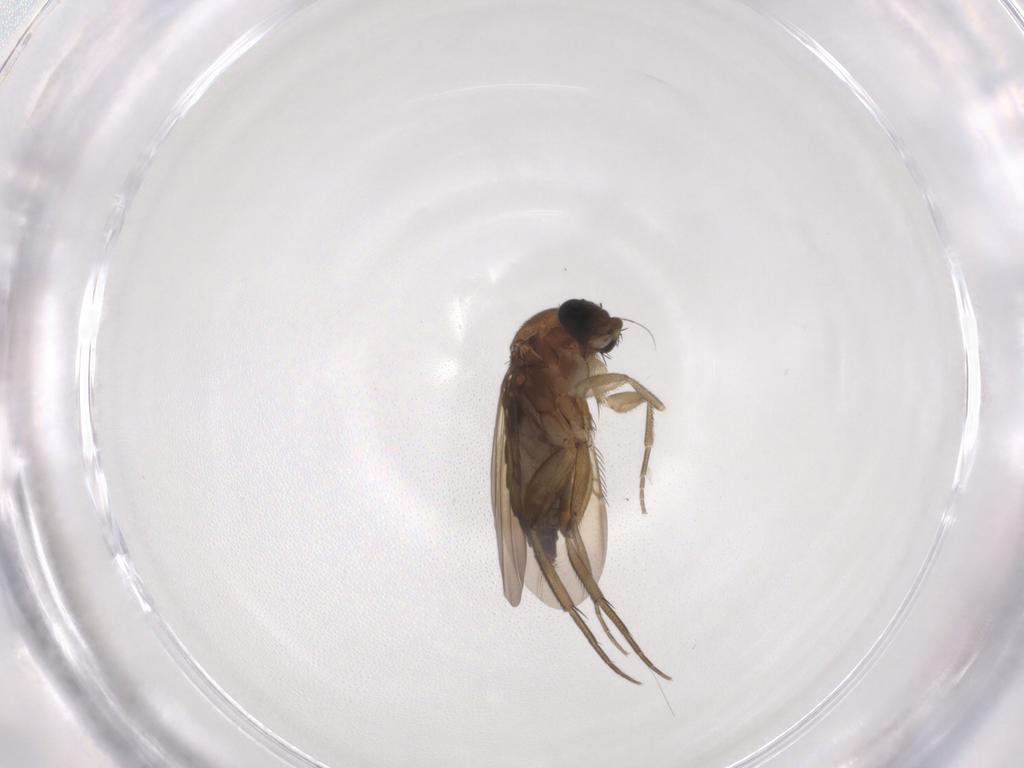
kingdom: Animalia
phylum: Arthropoda
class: Insecta
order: Diptera
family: Phoridae
